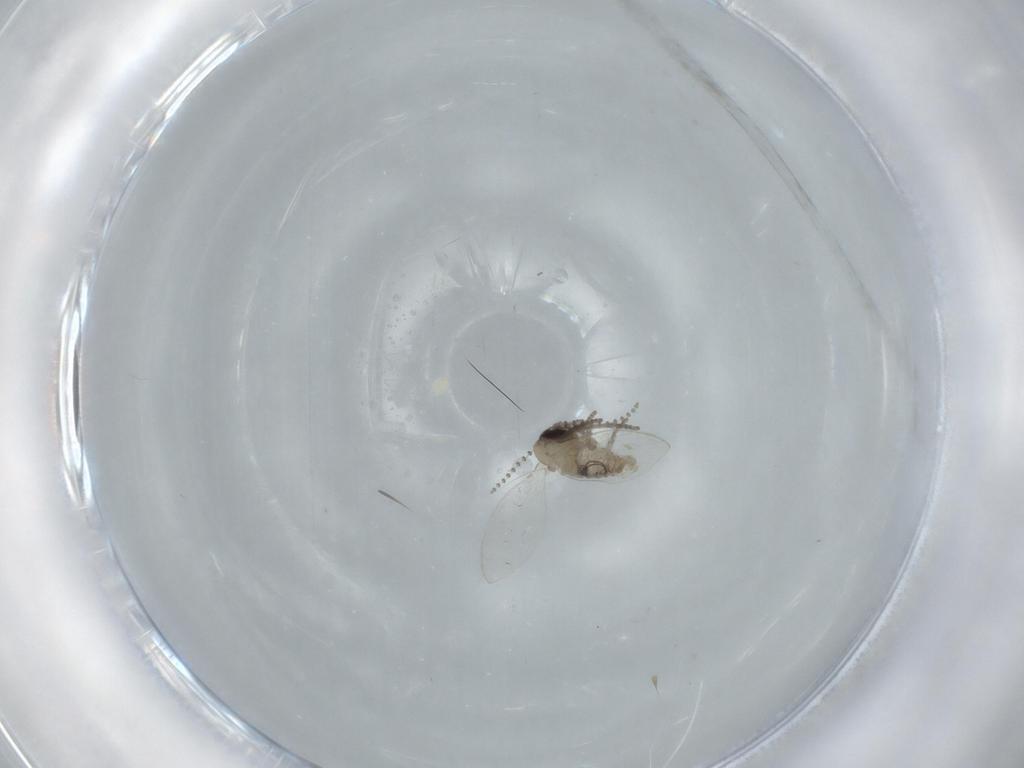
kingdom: Animalia
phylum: Arthropoda
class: Insecta
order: Diptera
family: Psychodidae
